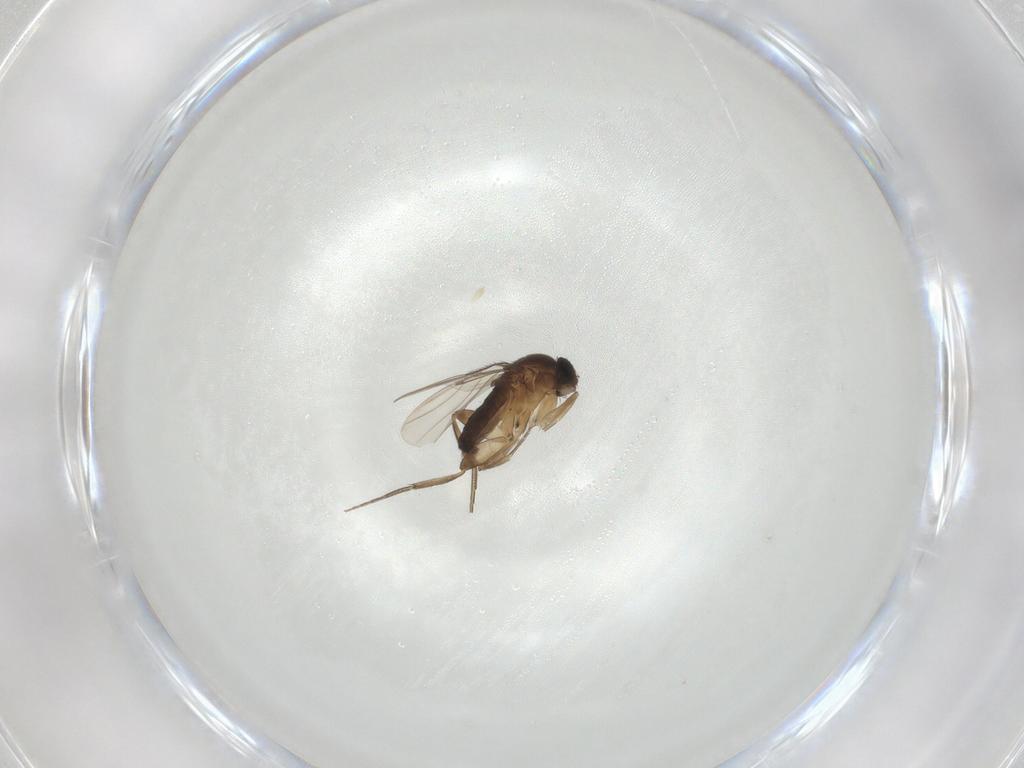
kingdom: Animalia
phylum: Arthropoda
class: Insecta
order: Diptera
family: Phoridae
